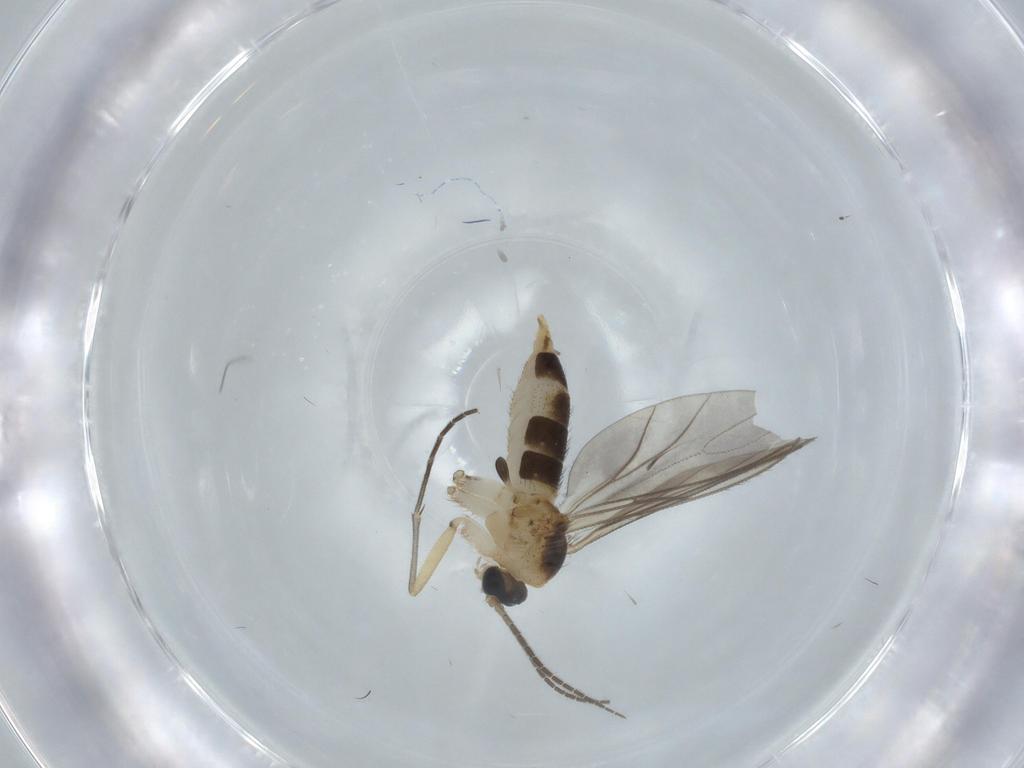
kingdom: Animalia
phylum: Arthropoda
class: Insecta
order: Diptera
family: Sciaridae
